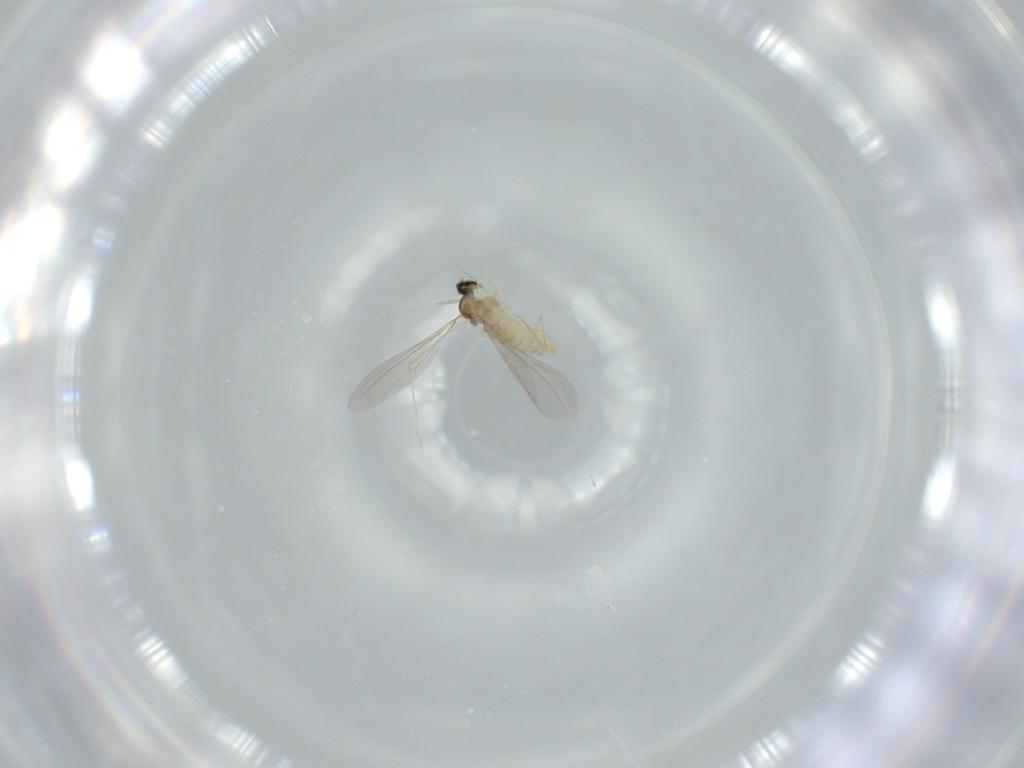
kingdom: Animalia
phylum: Arthropoda
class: Insecta
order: Diptera
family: Cecidomyiidae
